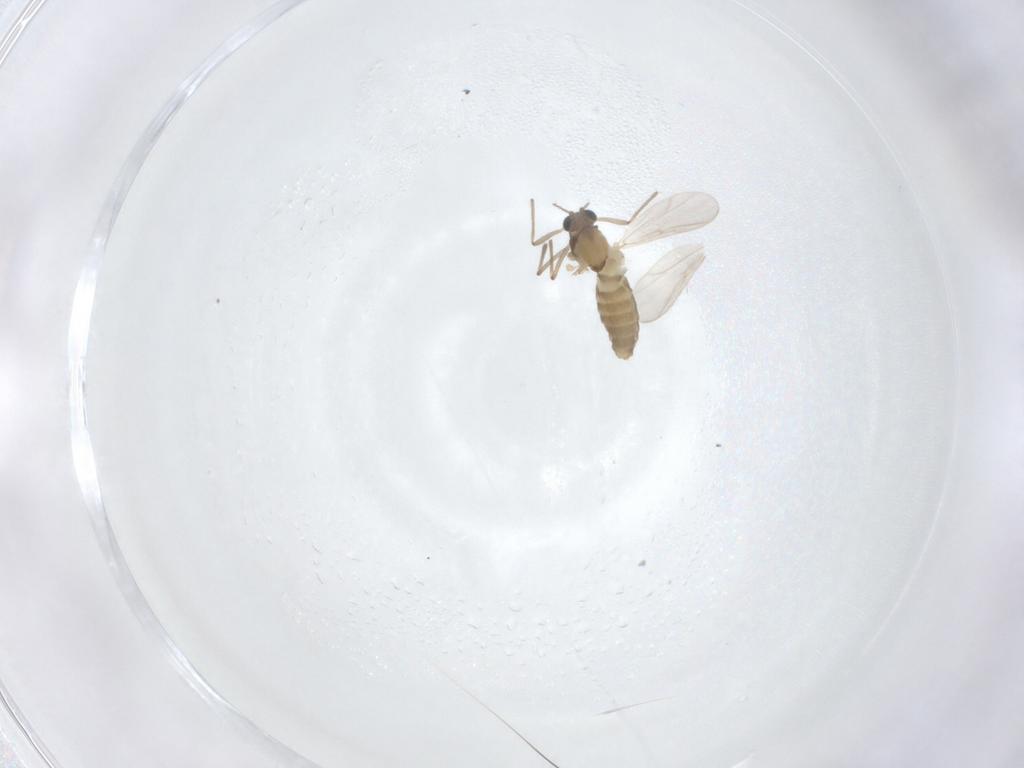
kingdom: Animalia
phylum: Arthropoda
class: Insecta
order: Diptera
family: Chironomidae
